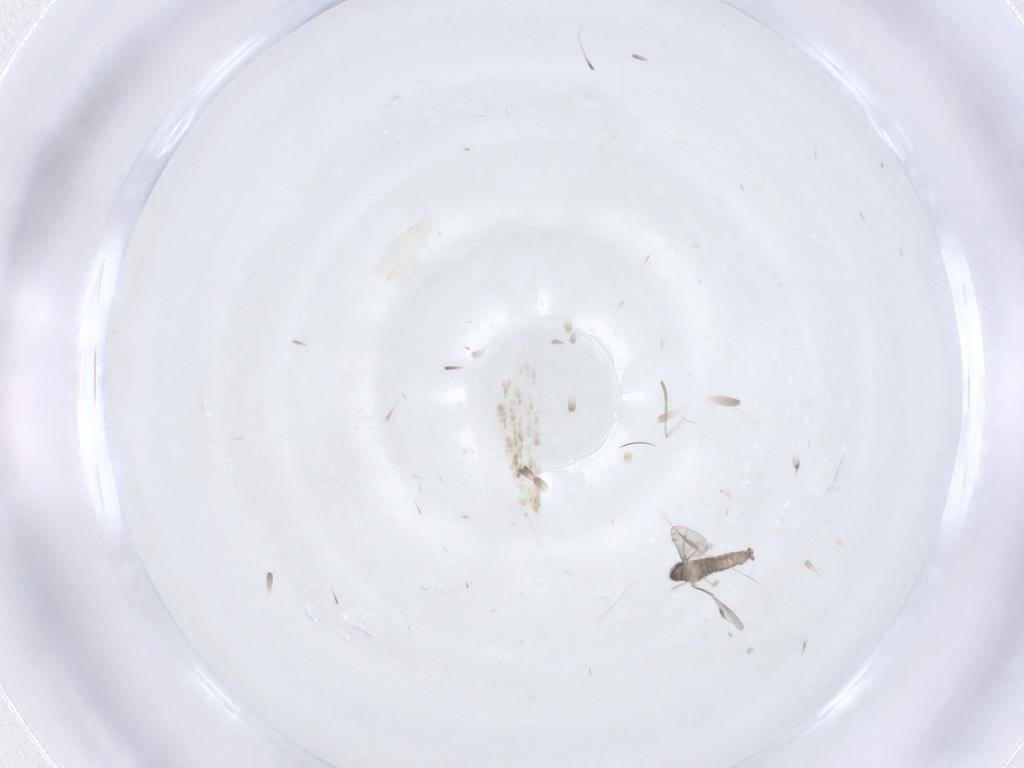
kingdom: Animalia
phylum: Arthropoda
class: Insecta
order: Diptera
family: Cecidomyiidae
